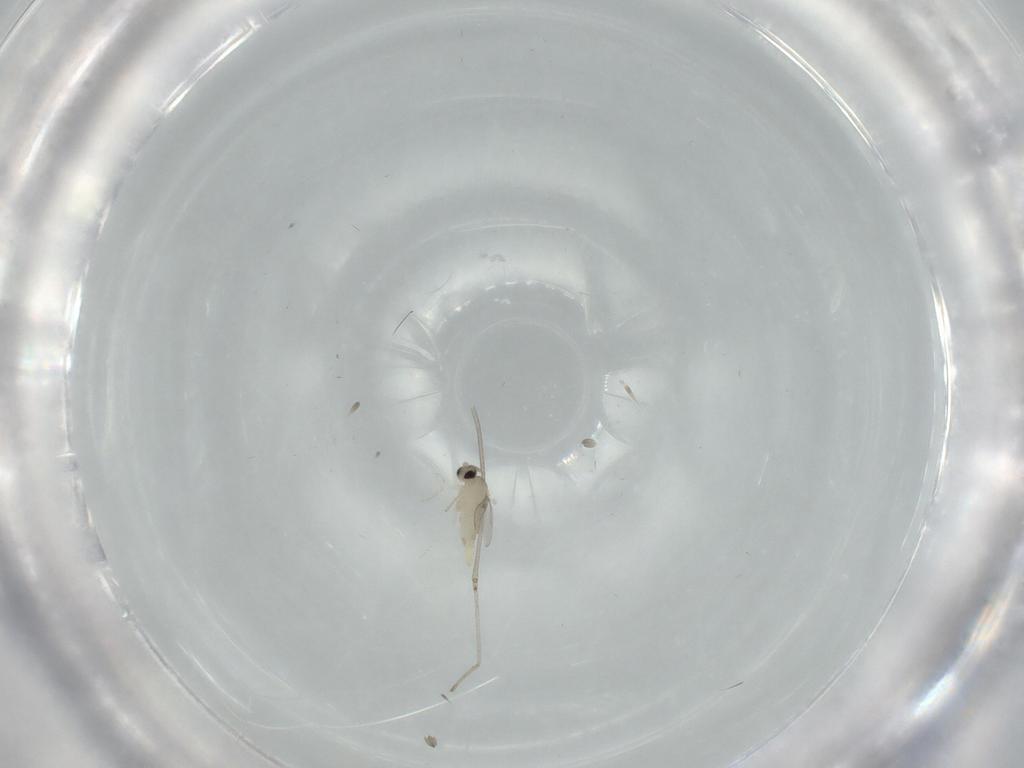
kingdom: Animalia
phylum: Arthropoda
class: Insecta
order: Diptera
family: Cecidomyiidae
